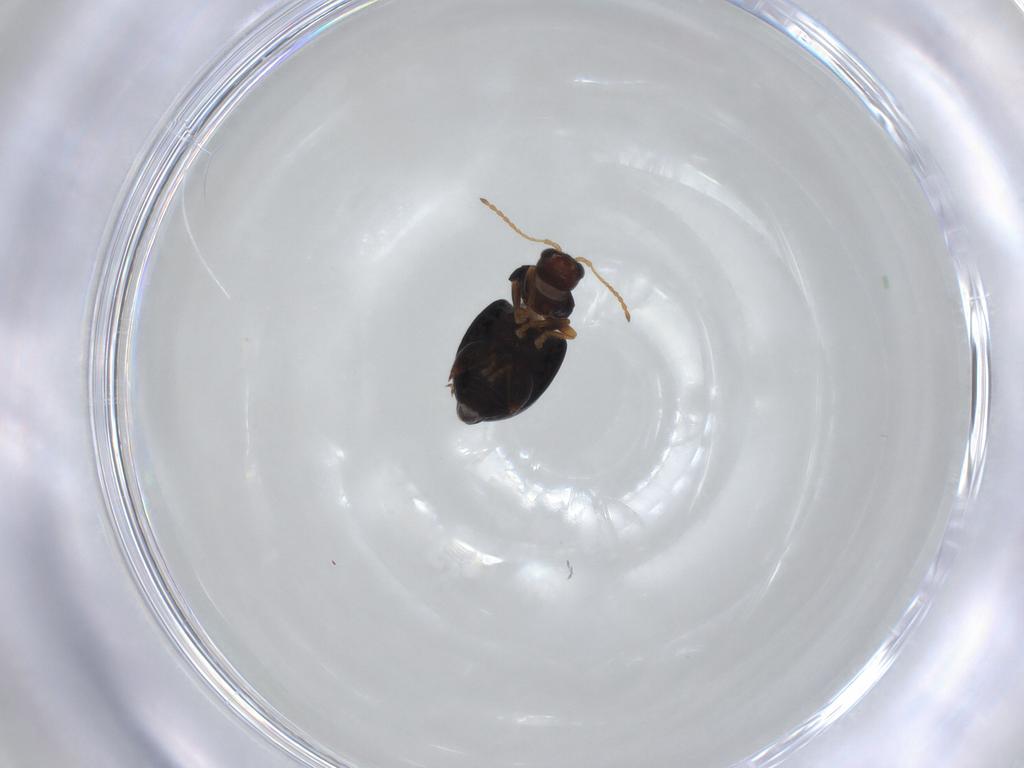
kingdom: Animalia
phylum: Arthropoda
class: Insecta
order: Coleoptera
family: Chrysomelidae
